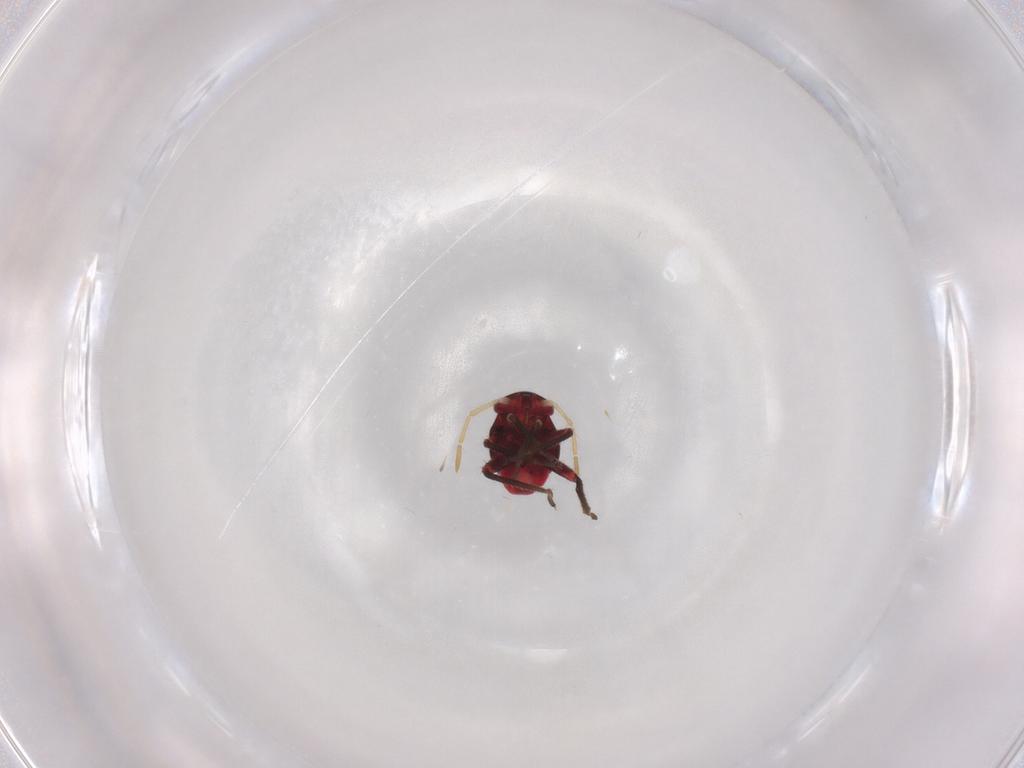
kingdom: Animalia
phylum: Arthropoda
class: Insecta
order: Hemiptera
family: Miridae
